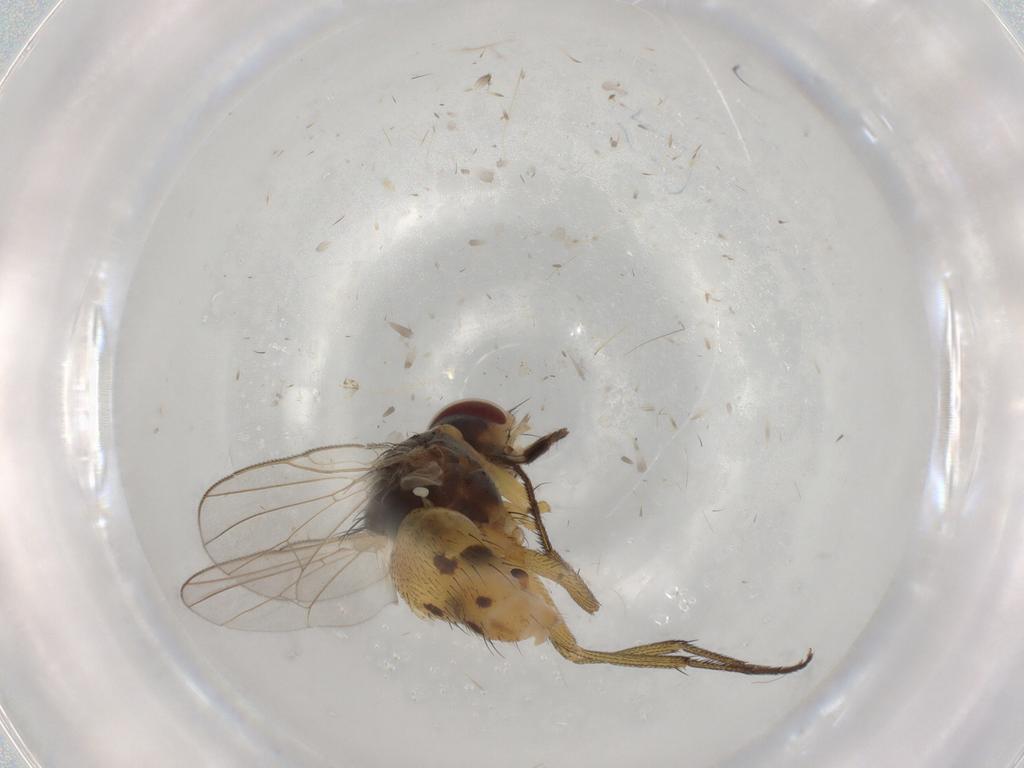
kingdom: Animalia
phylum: Arthropoda
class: Insecta
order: Diptera
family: Muscidae
